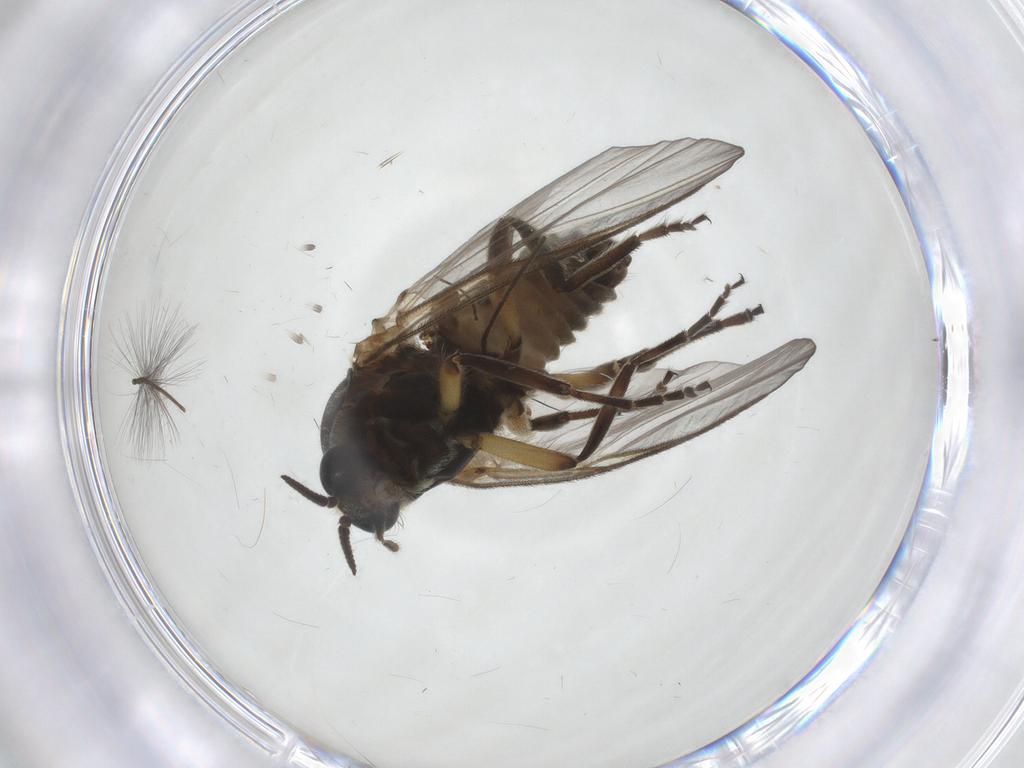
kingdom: Animalia
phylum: Arthropoda
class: Insecta
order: Diptera
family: Simuliidae
